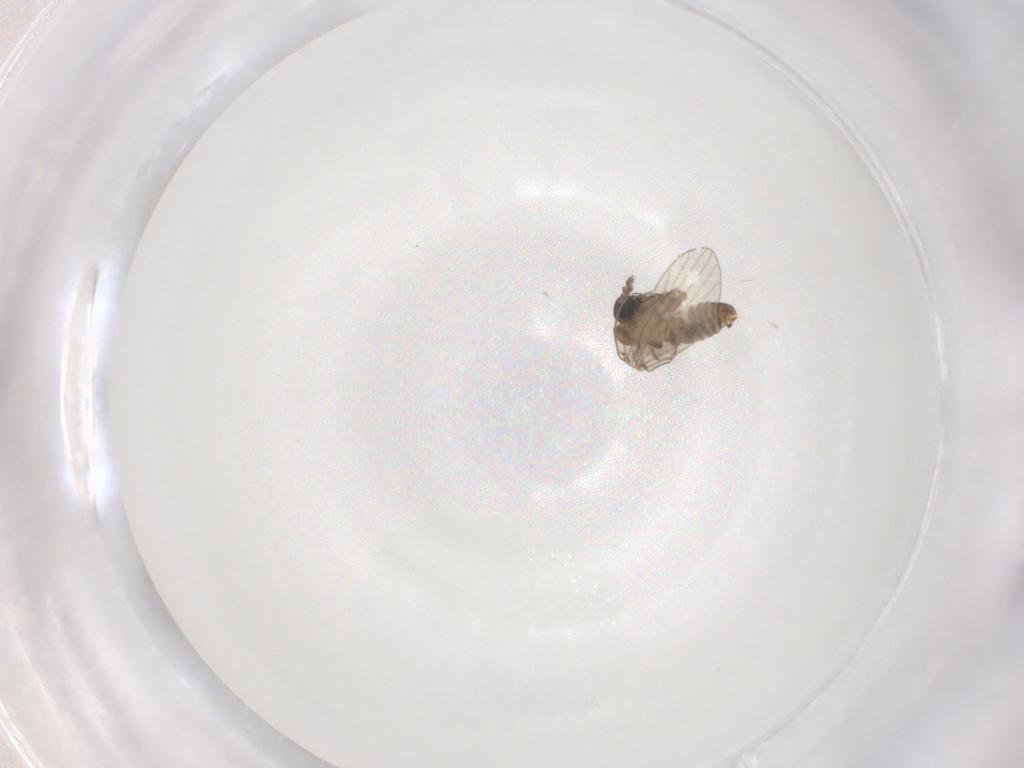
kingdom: Animalia
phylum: Arthropoda
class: Insecta
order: Diptera
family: Psychodidae
